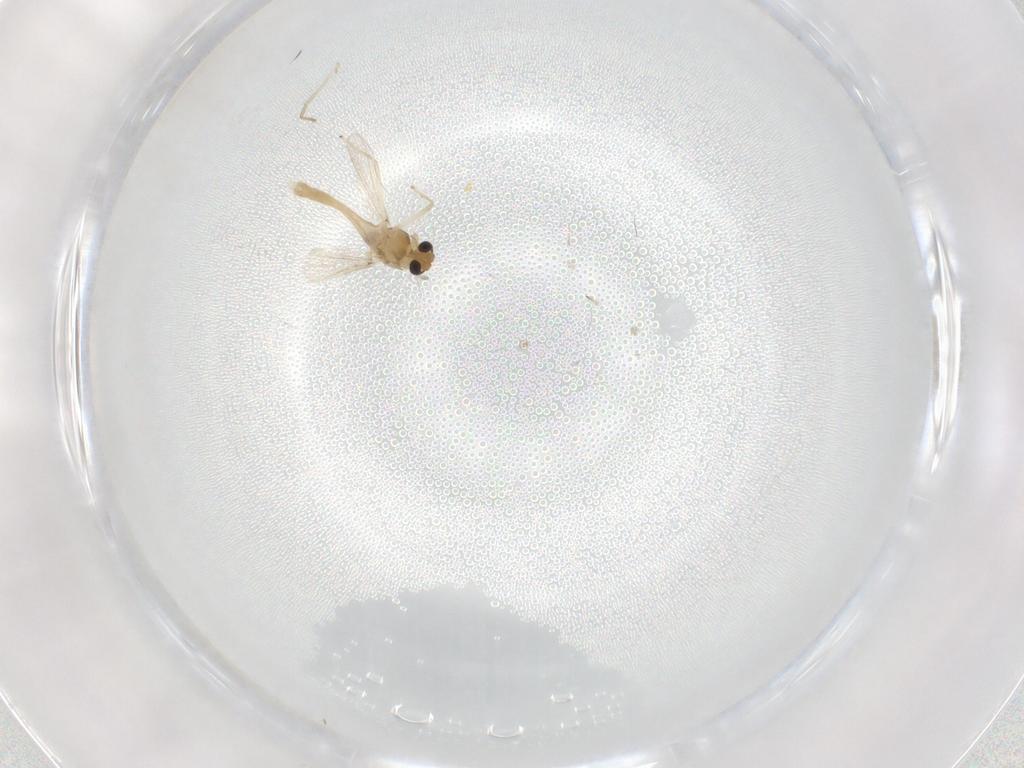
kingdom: Animalia
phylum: Arthropoda
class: Insecta
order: Diptera
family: Chironomidae
